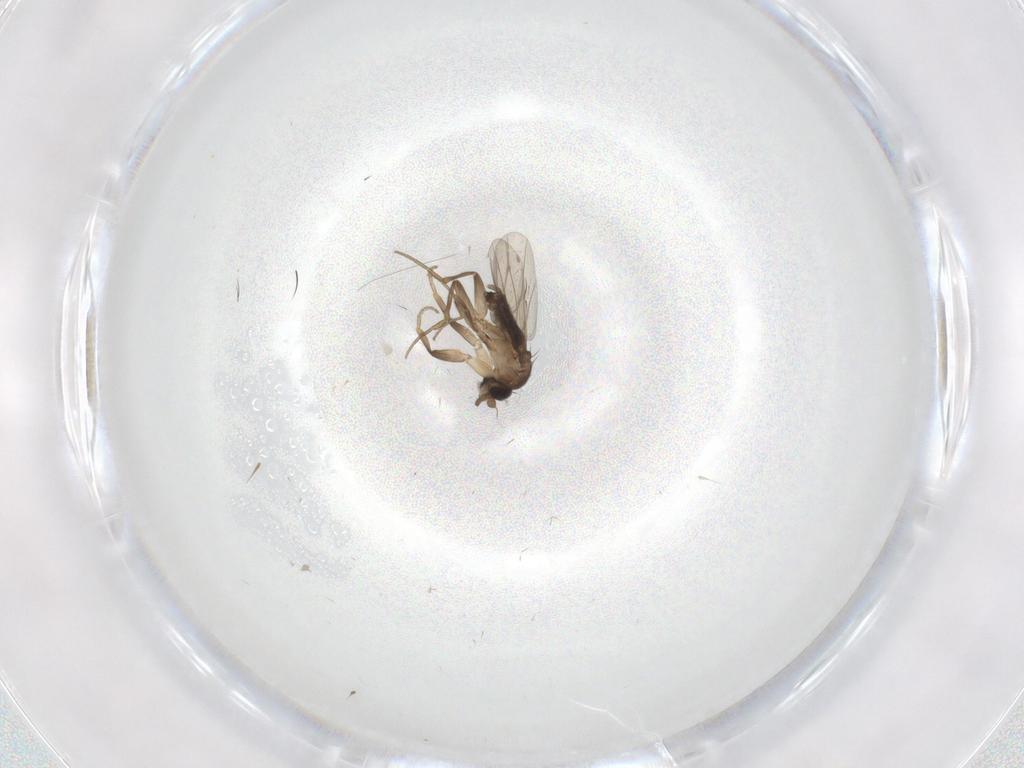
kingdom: Animalia
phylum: Arthropoda
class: Insecta
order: Diptera
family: Phoridae
